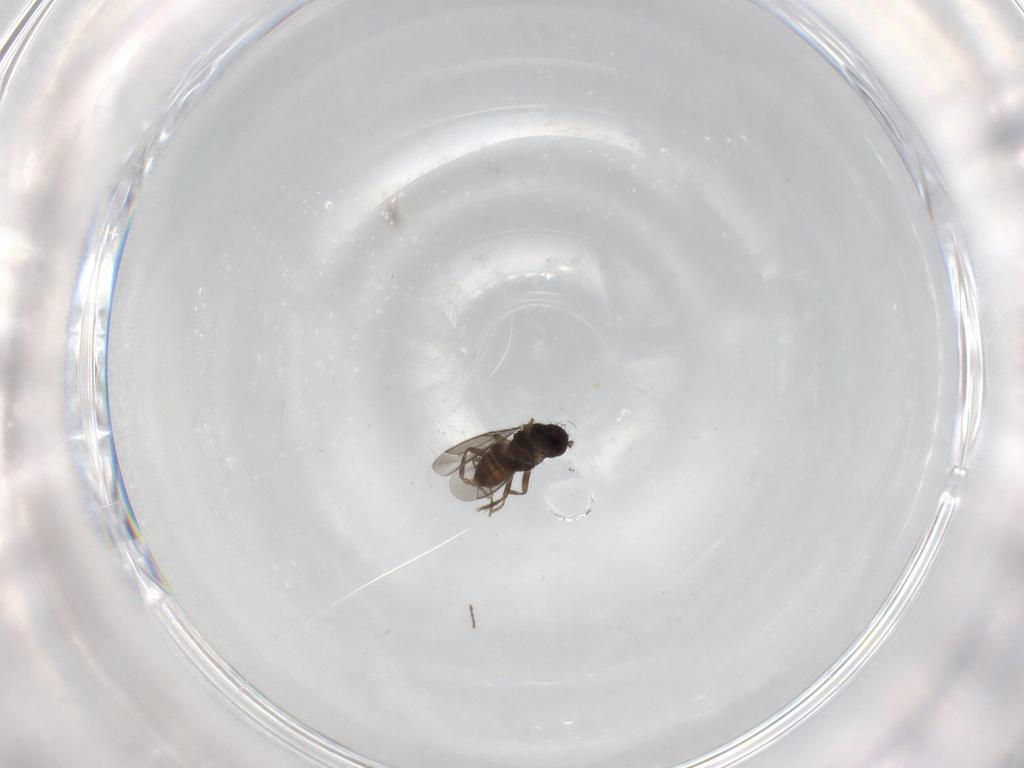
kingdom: Animalia
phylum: Arthropoda
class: Insecta
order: Diptera
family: Sphaeroceridae
